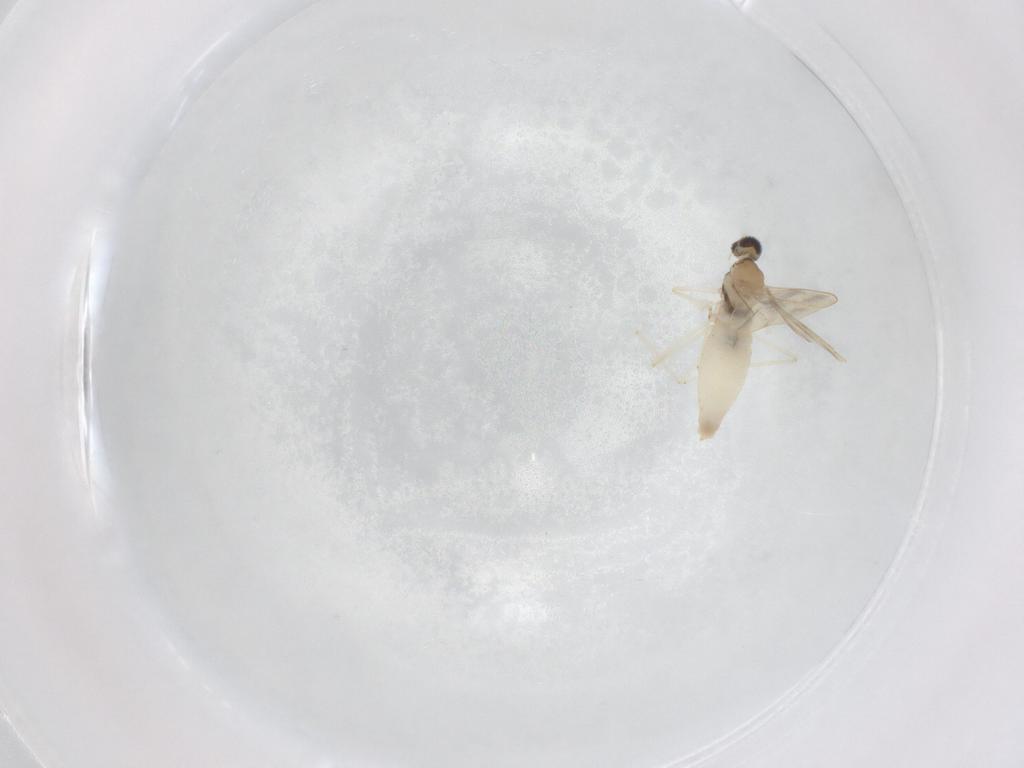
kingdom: Animalia
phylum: Arthropoda
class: Insecta
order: Diptera
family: Cecidomyiidae
